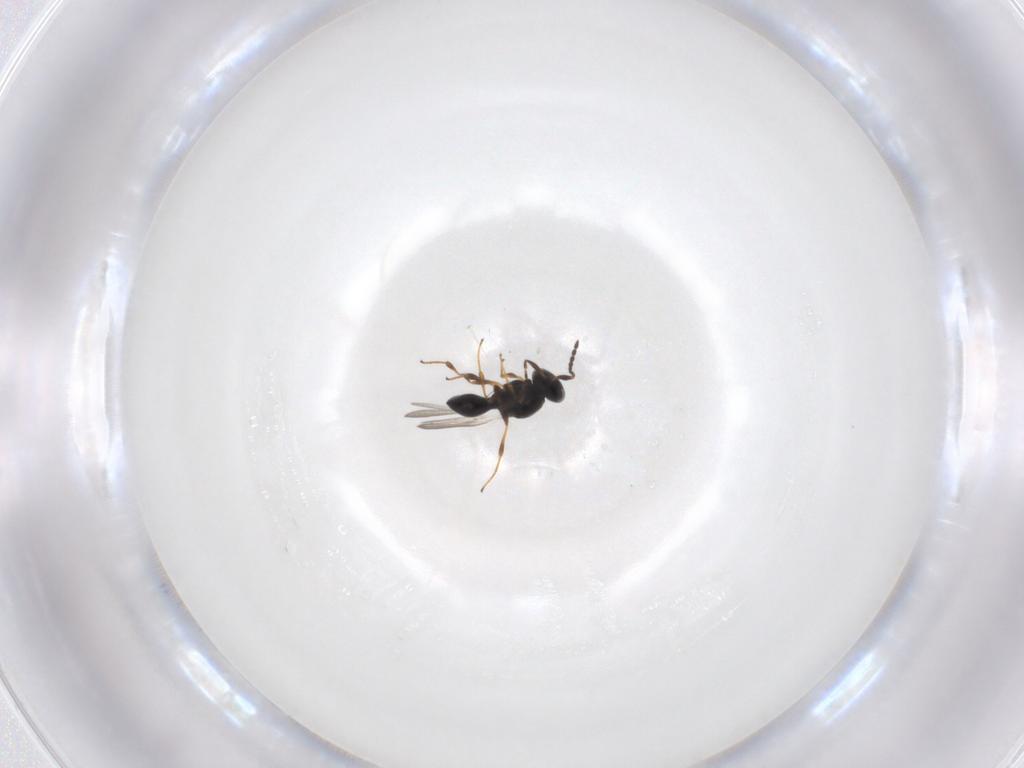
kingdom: Animalia
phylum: Arthropoda
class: Insecta
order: Hymenoptera
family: Platygastridae
